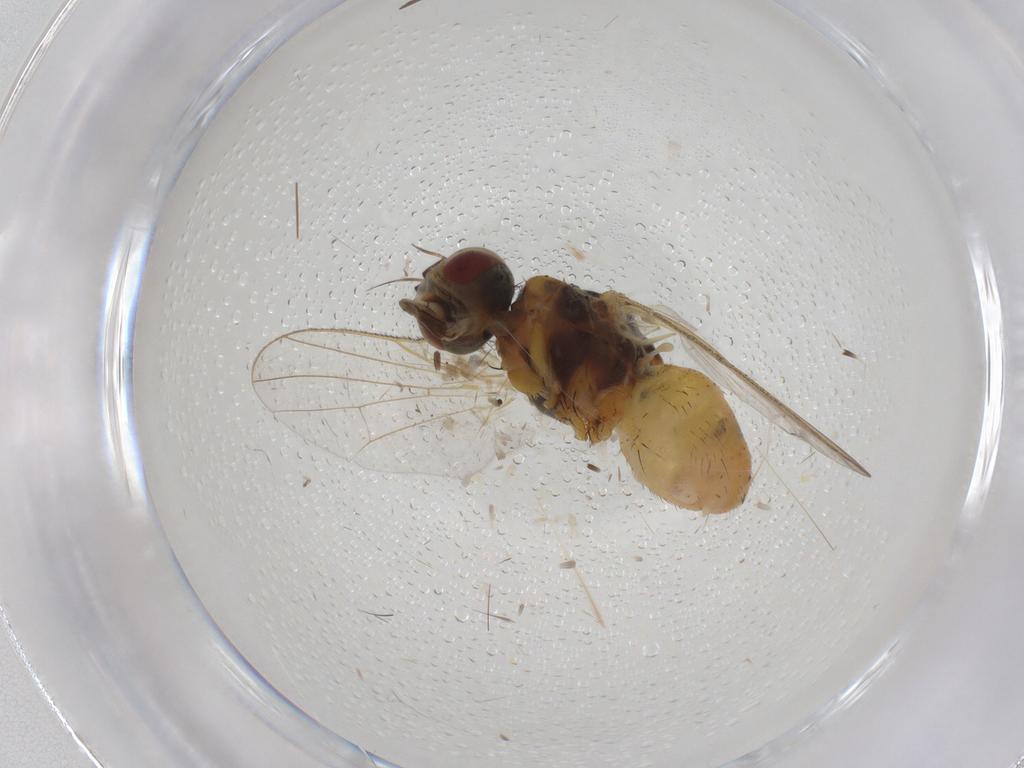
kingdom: Animalia
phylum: Arthropoda
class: Insecta
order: Diptera
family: Muscidae
